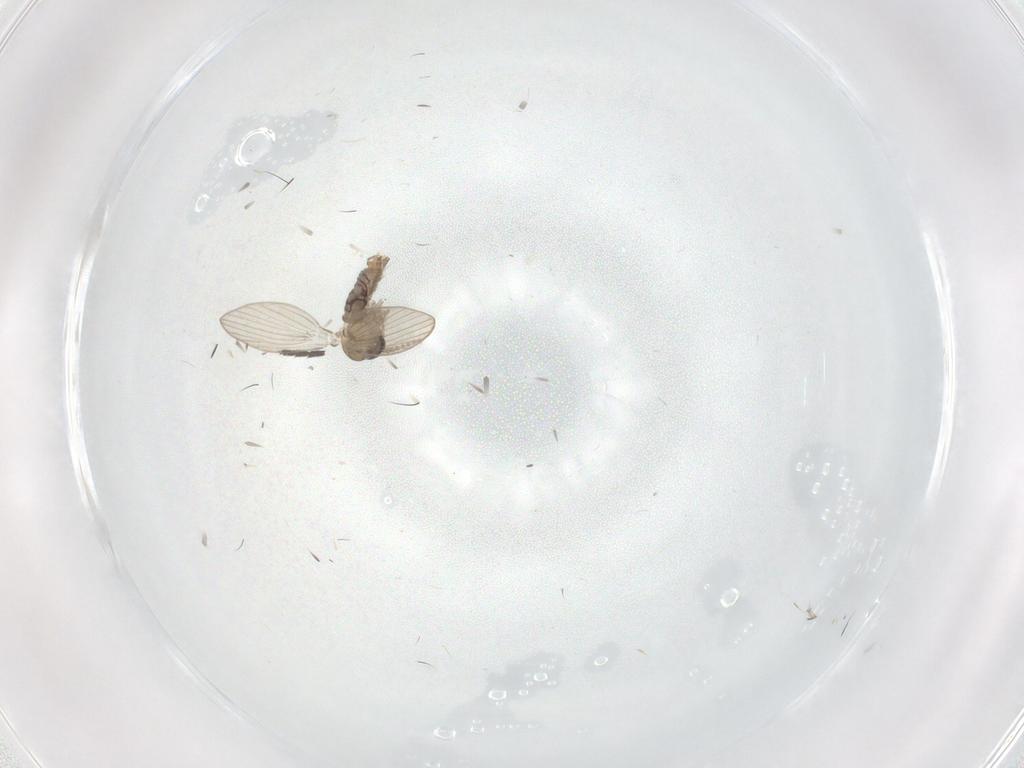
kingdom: Animalia
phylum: Arthropoda
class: Insecta
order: Diptera
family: Psychodidae
